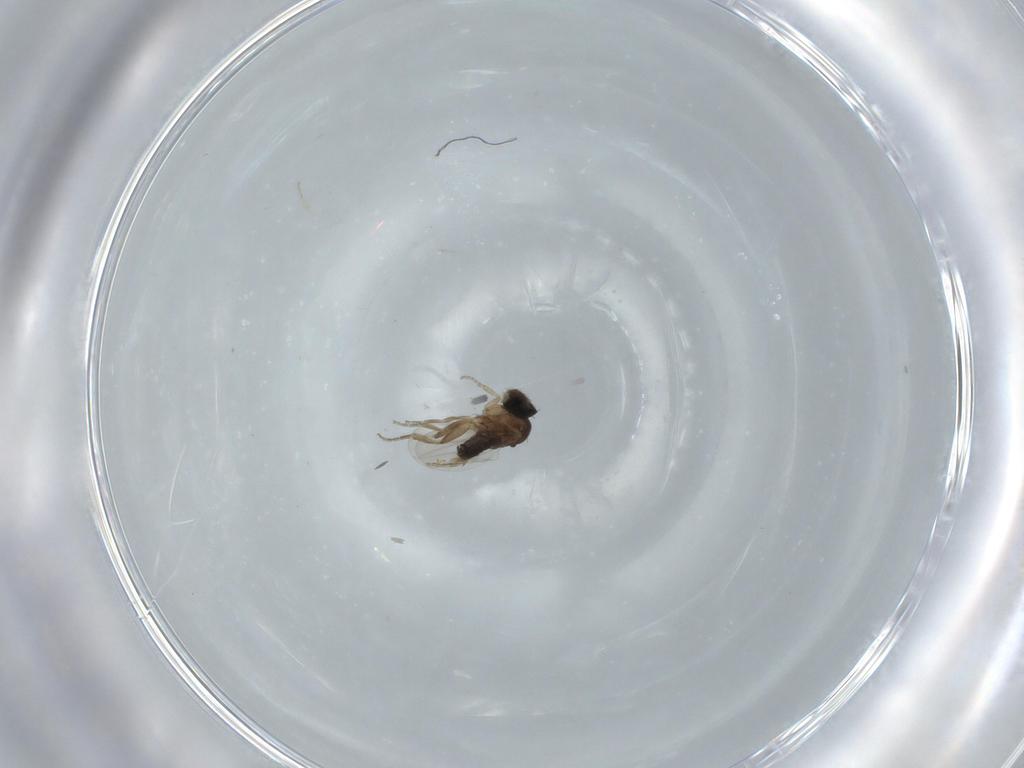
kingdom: Animalia
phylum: Arthropoda
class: Insecta
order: Diptera
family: Phoridae
